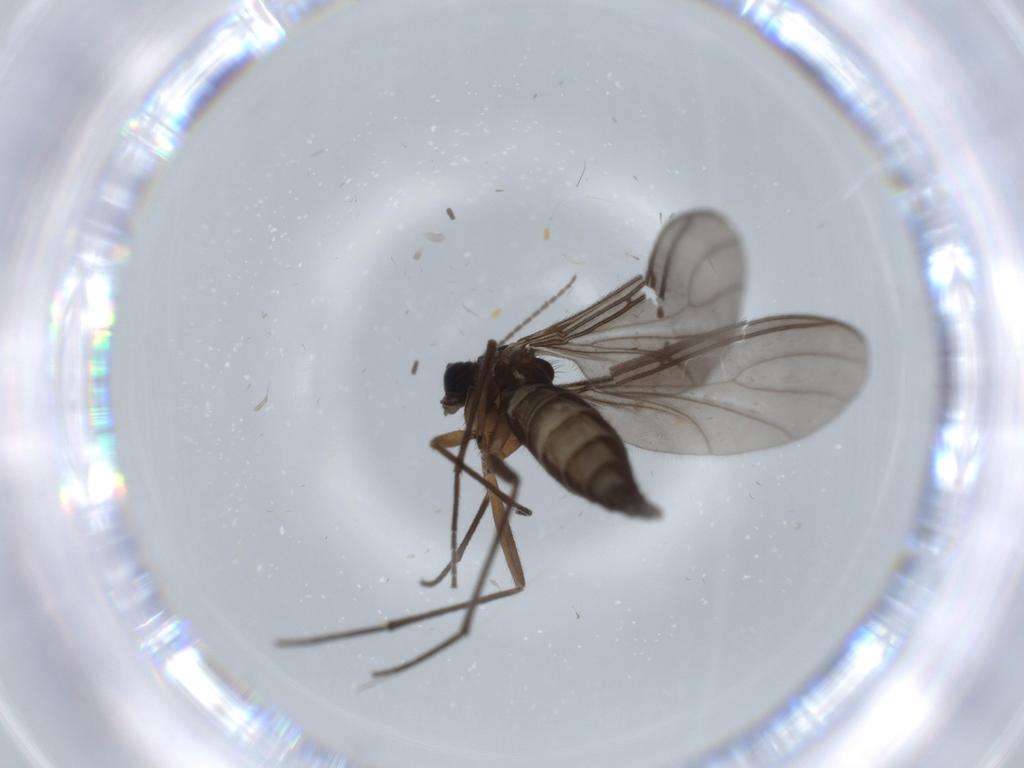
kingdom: Animalia
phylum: Arthropoda
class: Insecta
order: Diptera
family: Sciaridae
